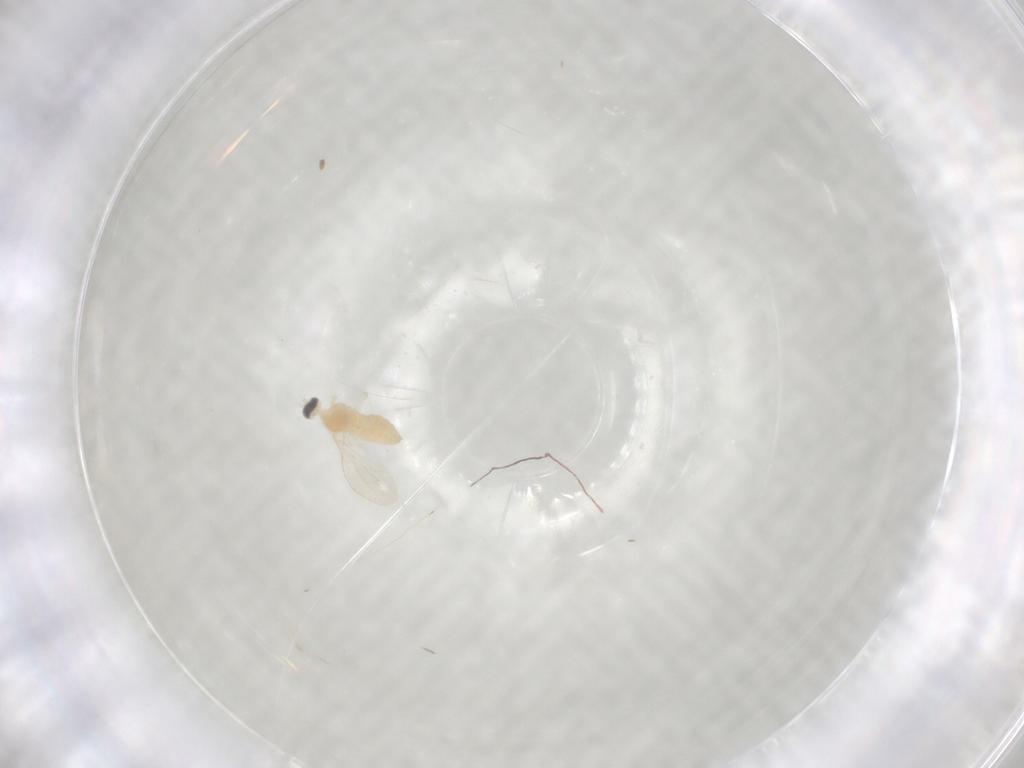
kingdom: Animalia
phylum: Arthropoda
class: Insecta
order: Diptera
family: Cecidomyiidae
